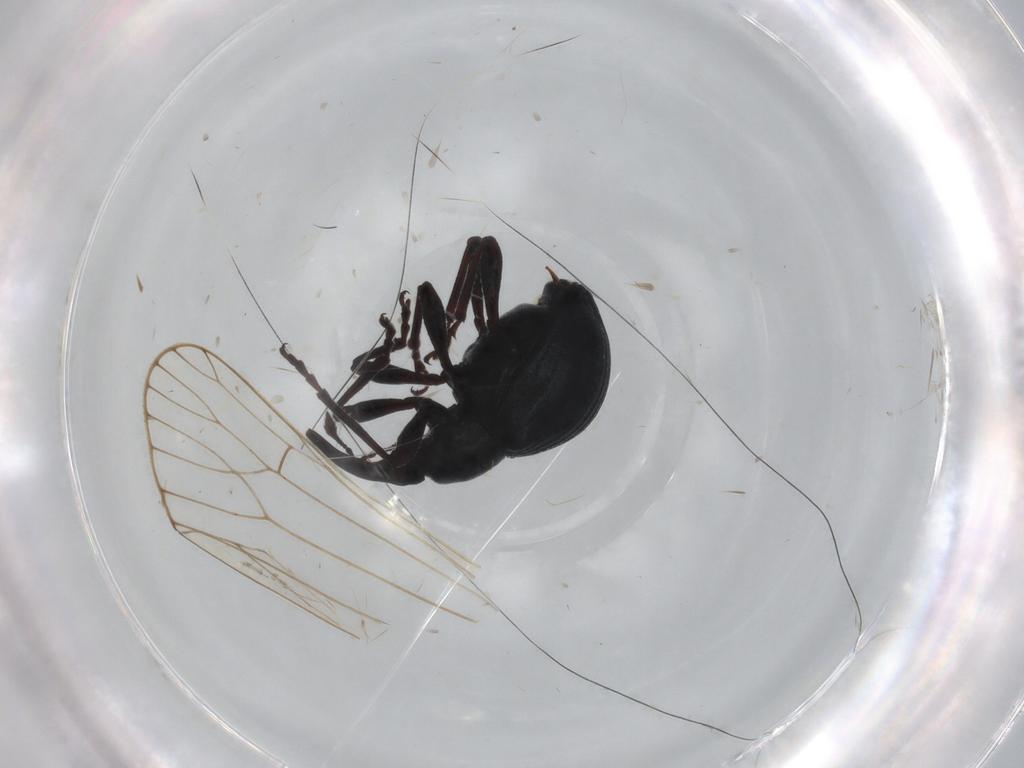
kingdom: Animalia
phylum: Arthropoda
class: Insecta
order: Coleoptera
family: Apionidae
